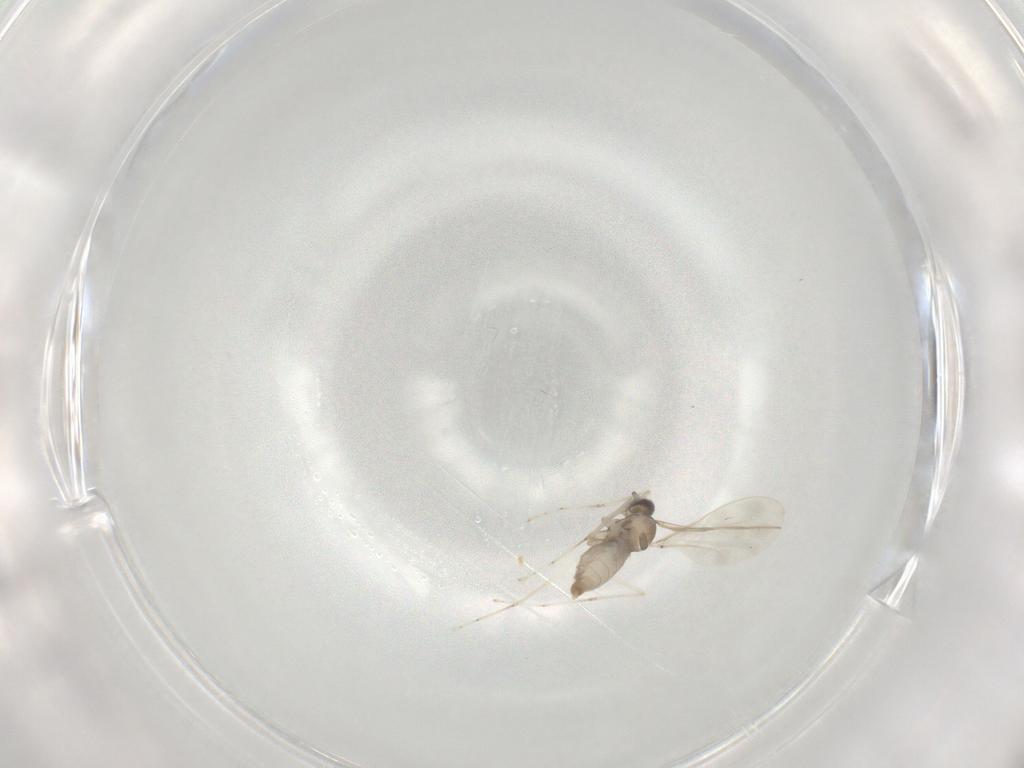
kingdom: Animalia
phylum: Arthropoda
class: Insecta
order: Diptera
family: Cecidomyiidae
